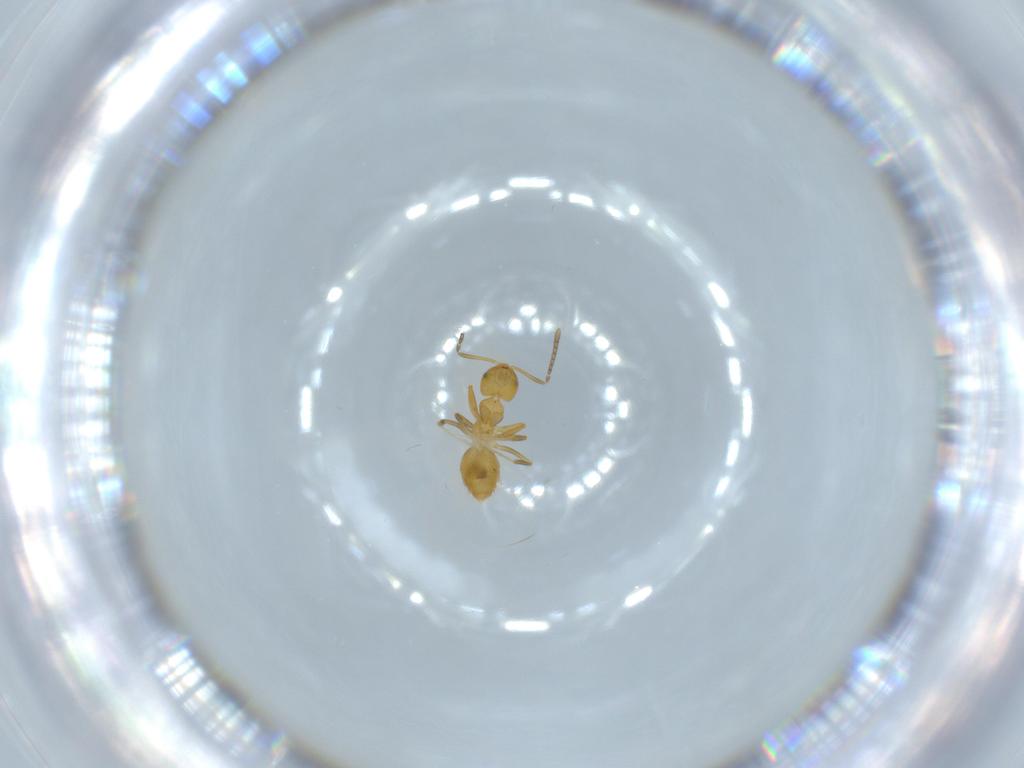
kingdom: Animalia
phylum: Arthropoda
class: Insecta
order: Hymenoptera
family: Formicidae
